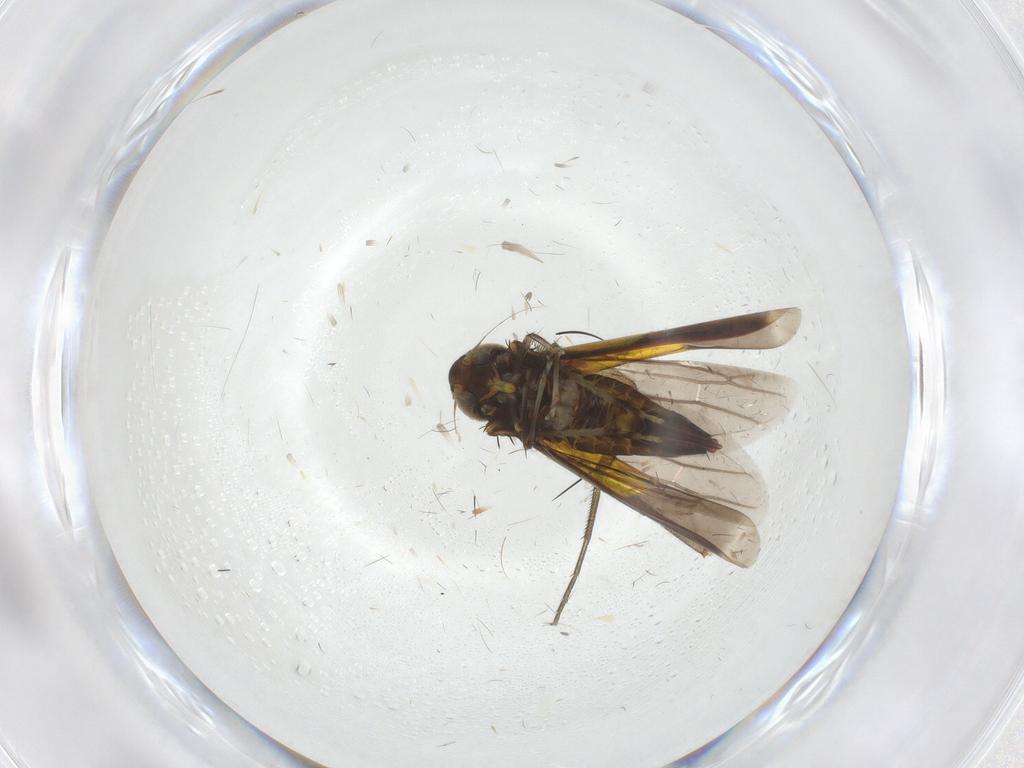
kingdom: Animalia
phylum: Arthropoda
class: Insecta
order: Hemiptera
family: Cicadellidae
